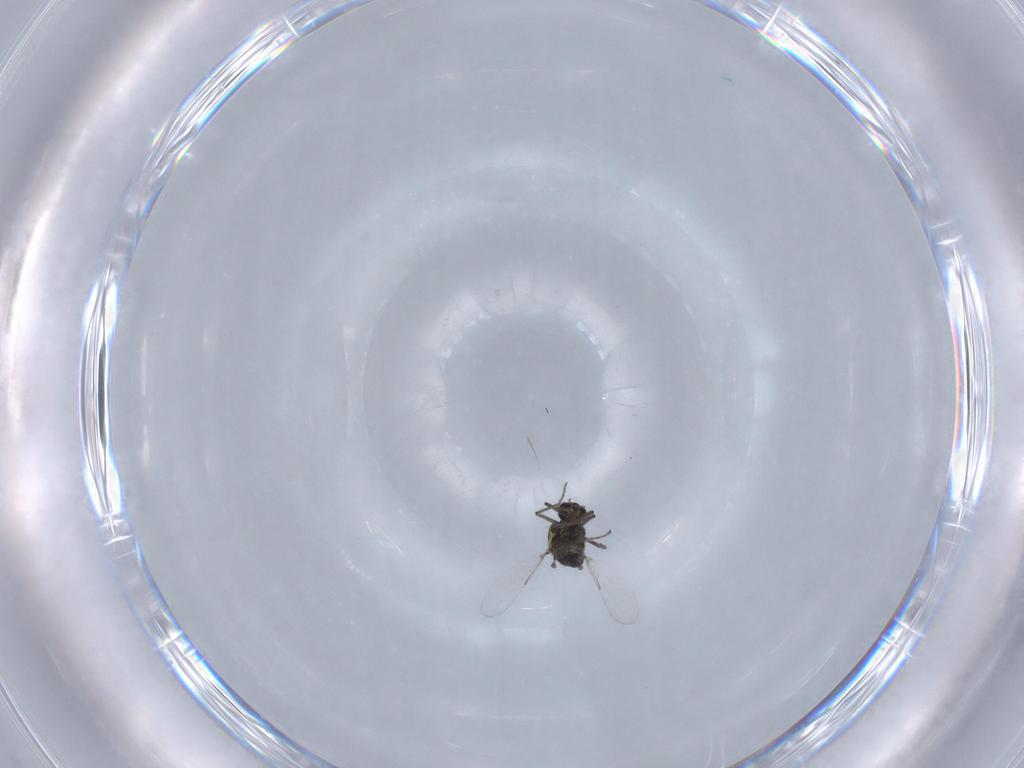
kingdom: Animalia
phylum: Arthropoda
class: Insecta
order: Diptera
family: Ceratopogonidae
